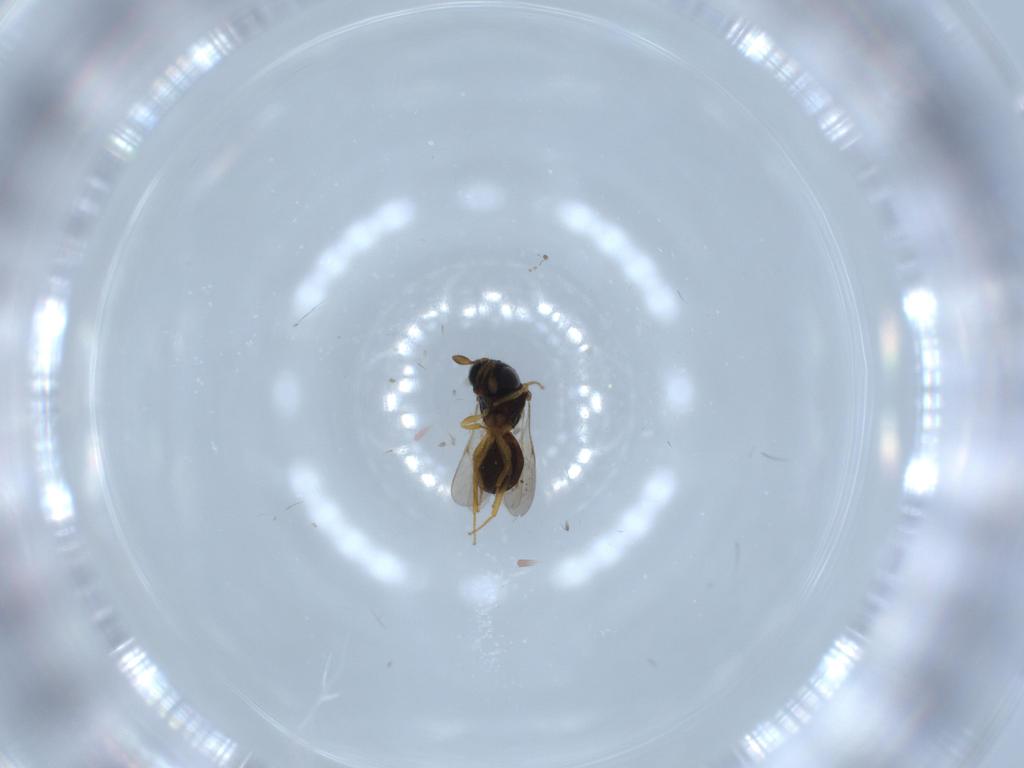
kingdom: Animalia
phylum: Arthropoda
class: Insecta
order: Hymenoptera
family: Scelionidae
